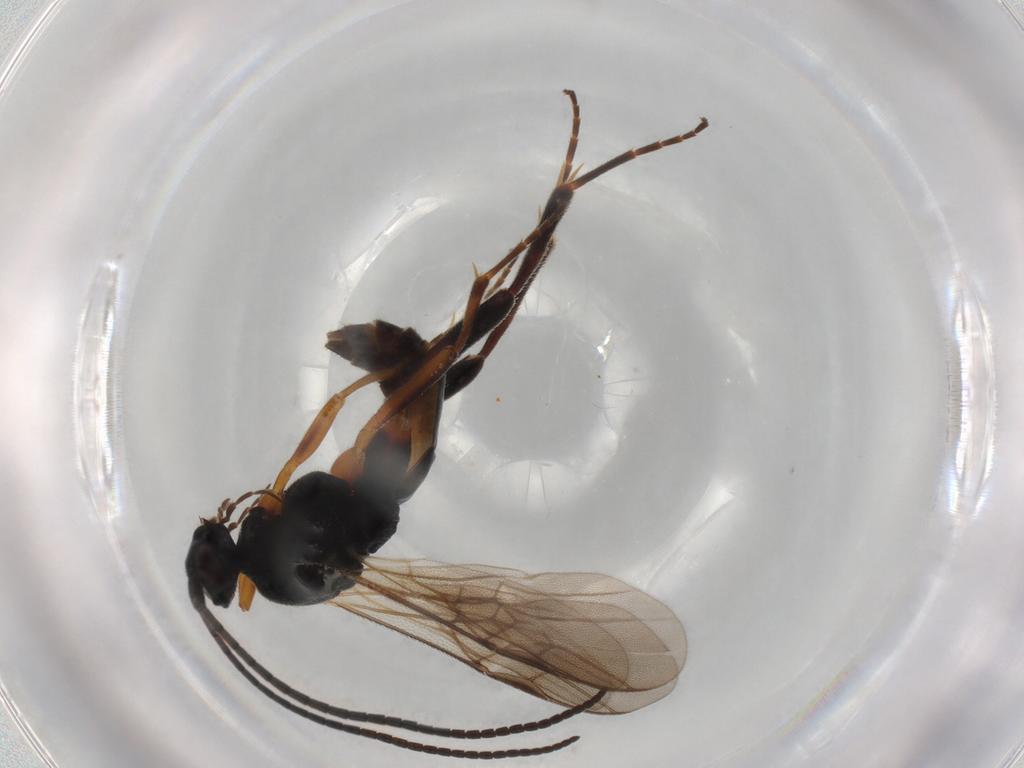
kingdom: Animalia
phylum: Arthropoda
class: Insecta
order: Hymenoptera
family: Braconidae
